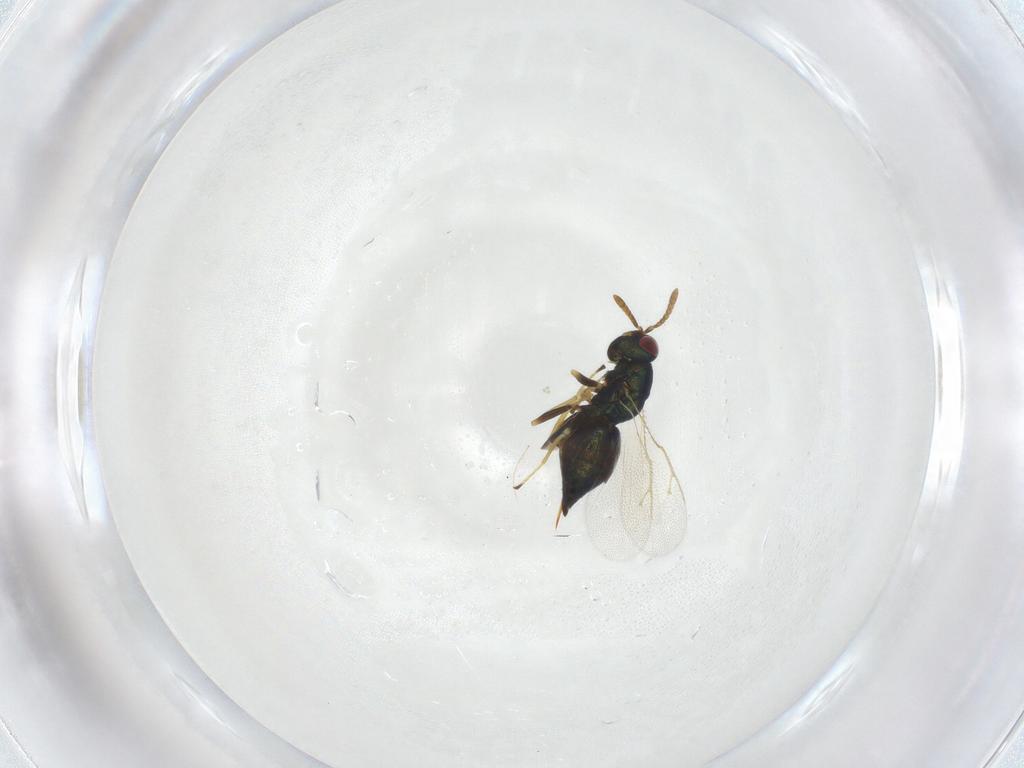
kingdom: Animalia
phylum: Arthropoda
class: Insecta
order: Hymenoptera
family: Pteromalidae
